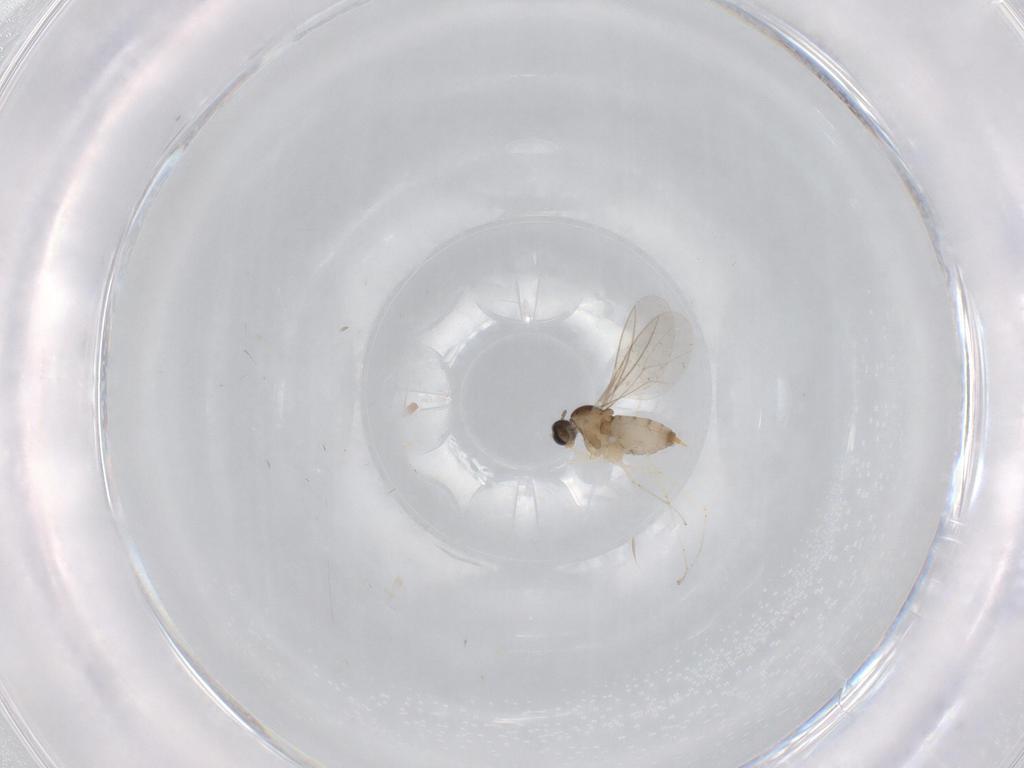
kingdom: Animalia
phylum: Arthropoda
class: Insecta
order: Diptera
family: Cecidomyiidae
